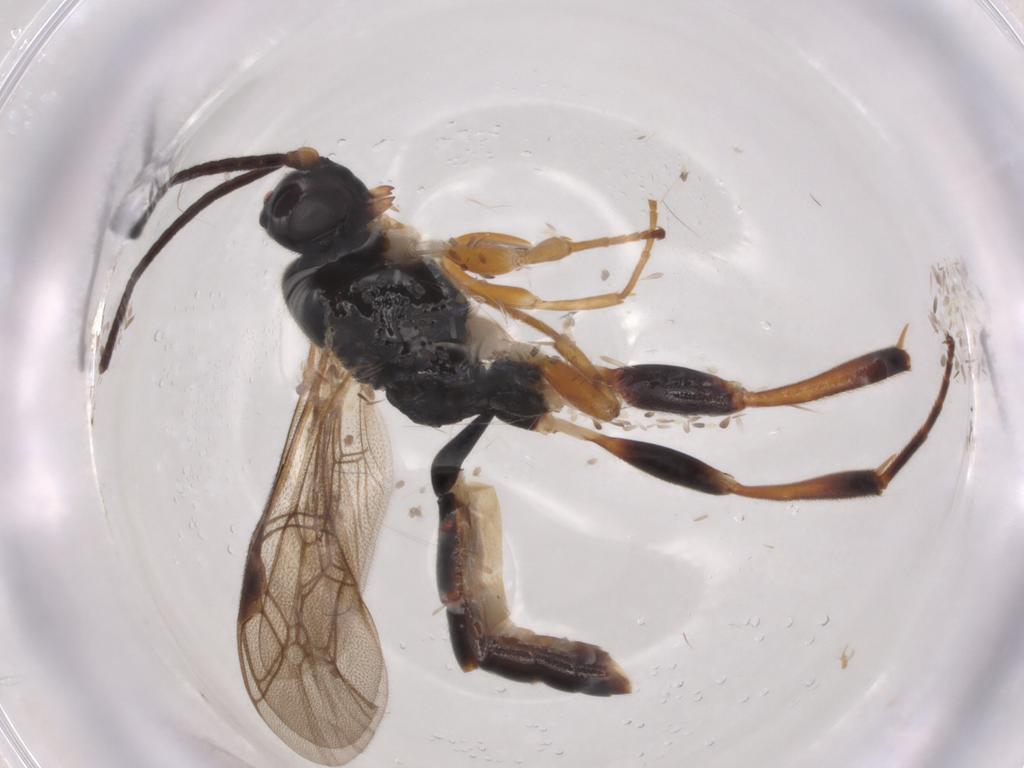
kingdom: Animalia
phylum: Arthropoda
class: Insecta
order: Hymenoptera
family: Ichneumonidae
